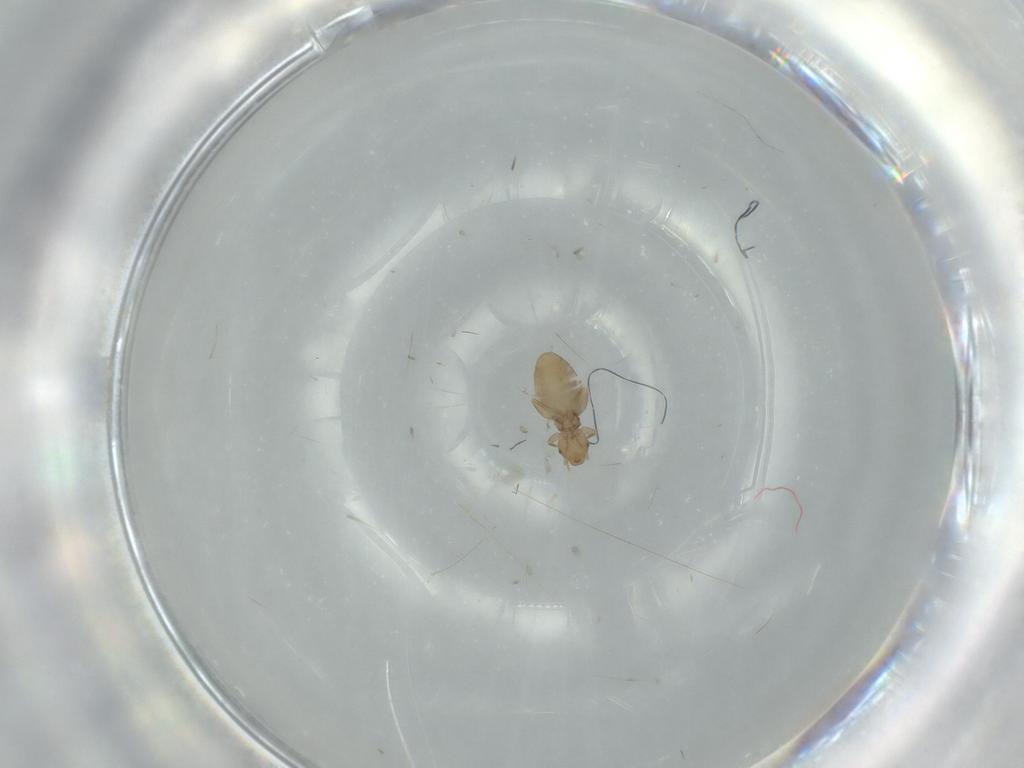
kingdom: Animalia
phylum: Arthropoda
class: Insecta
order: Psocodea
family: Liposcelididae
